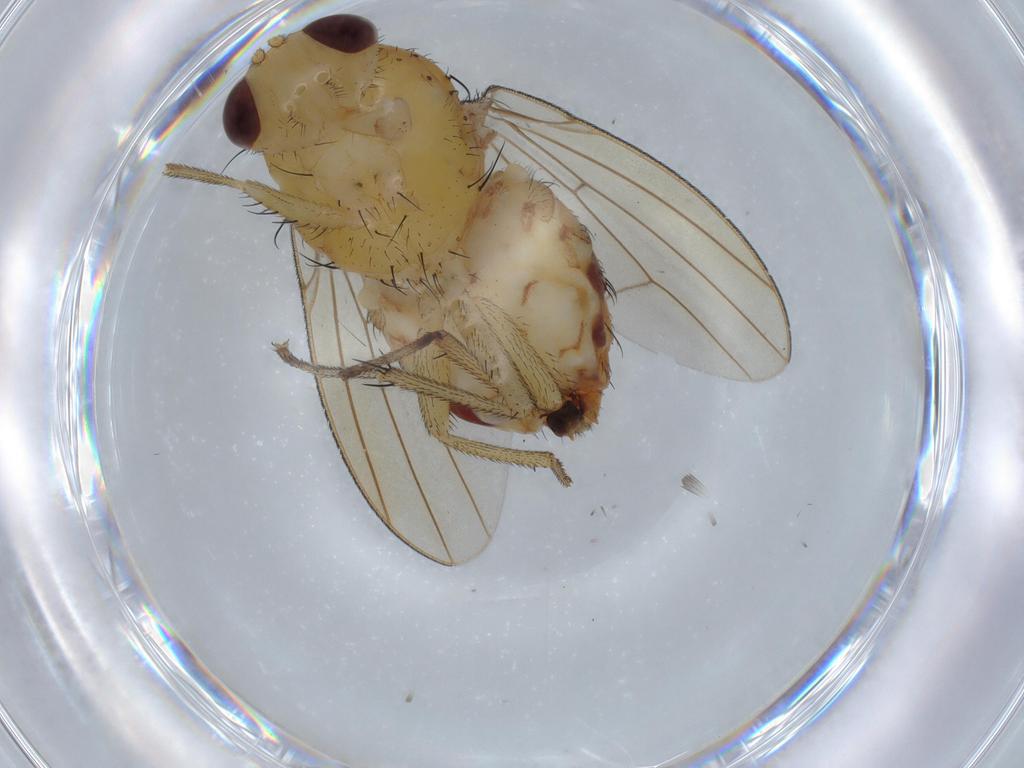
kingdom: Animalia
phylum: Arthropoda
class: Insecta
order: Diptera
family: Lauxaniidae
